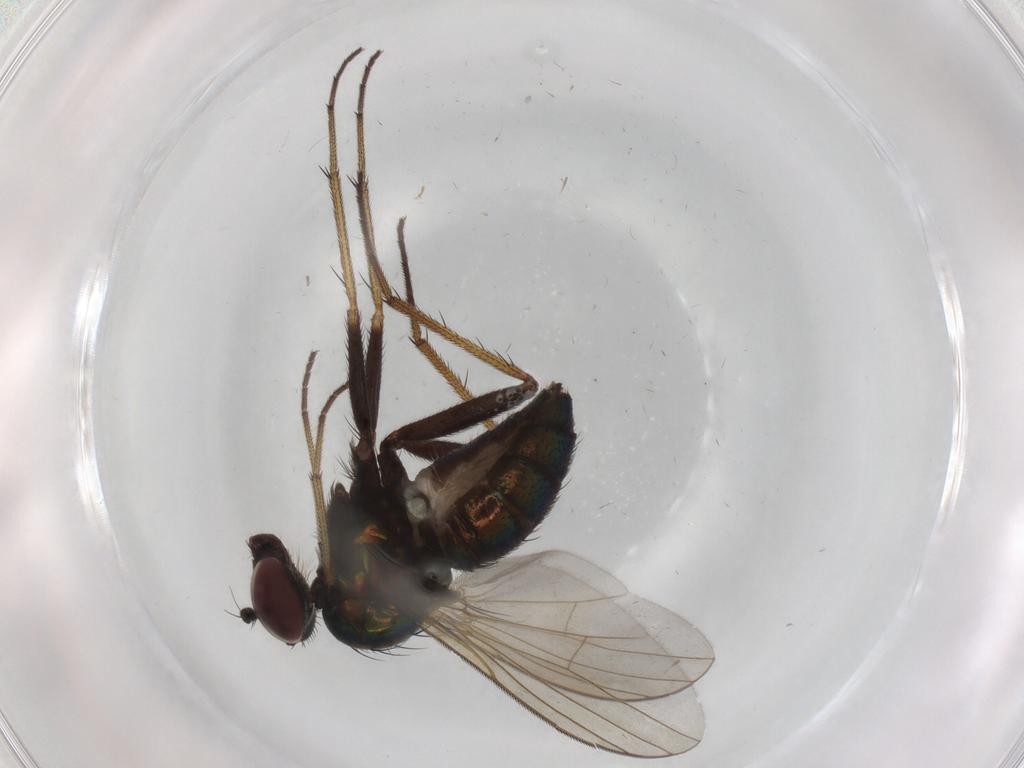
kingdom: Animalia
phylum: Arthropoda
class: Insecta
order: Diptera
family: Dolichopodidae
